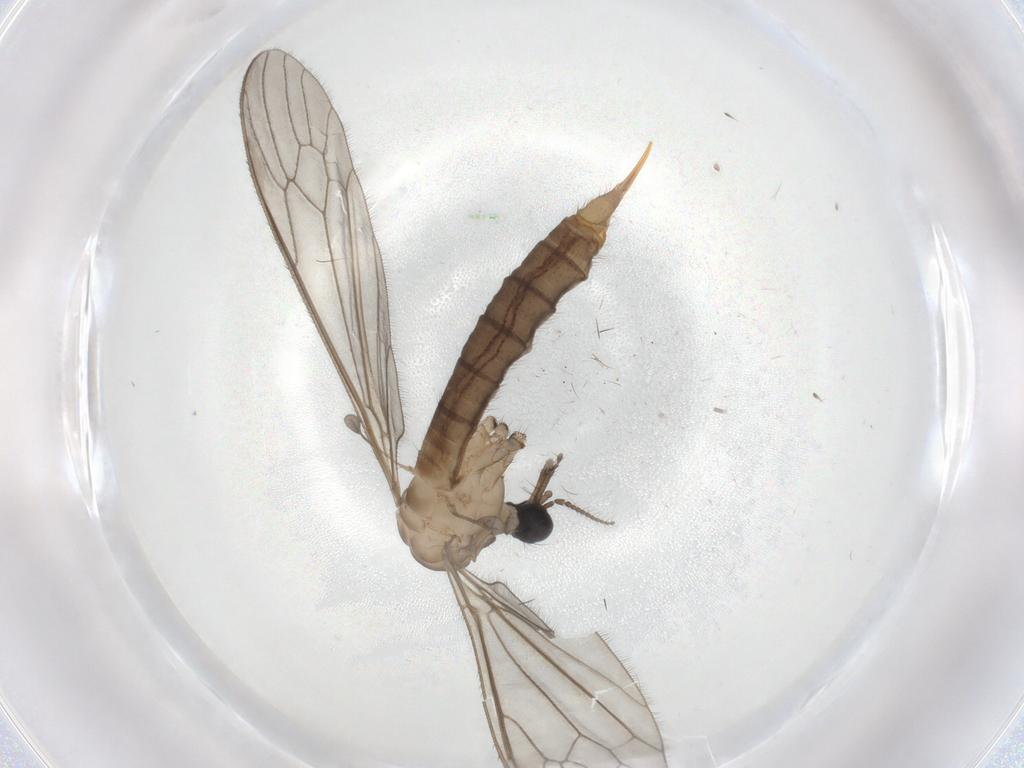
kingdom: Animalia
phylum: Arthropoda
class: Insecta
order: Diptera
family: Limoniidae
